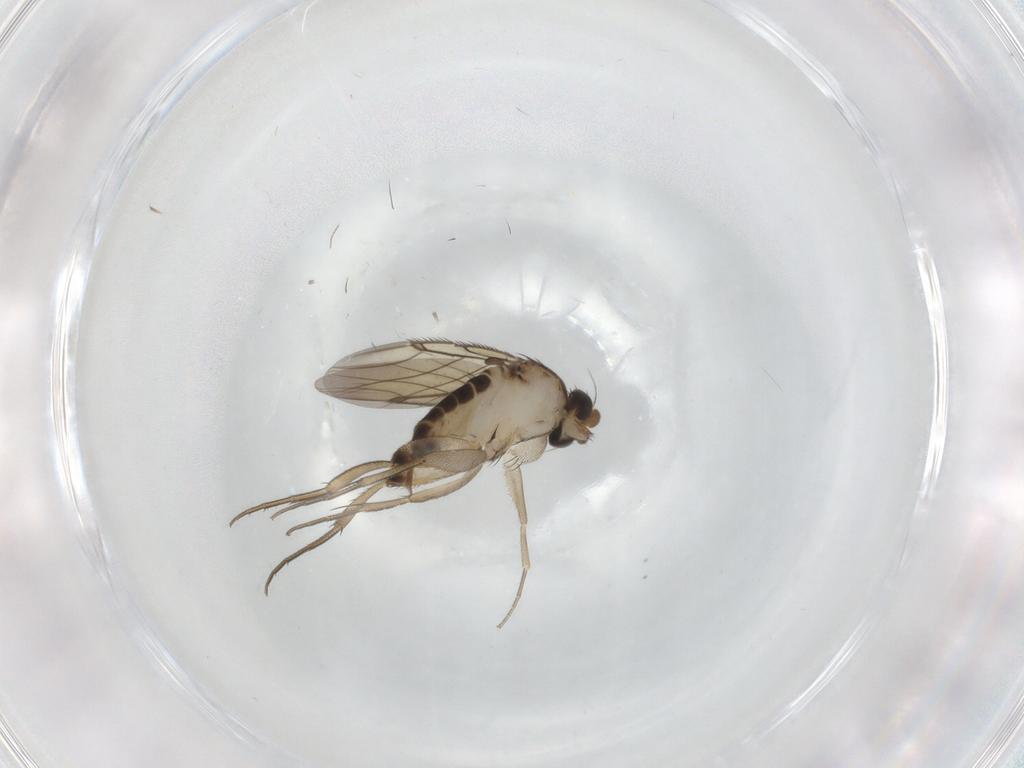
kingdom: Animalia
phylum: Arthropoda
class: Insecta
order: Diptera
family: Phoridae
